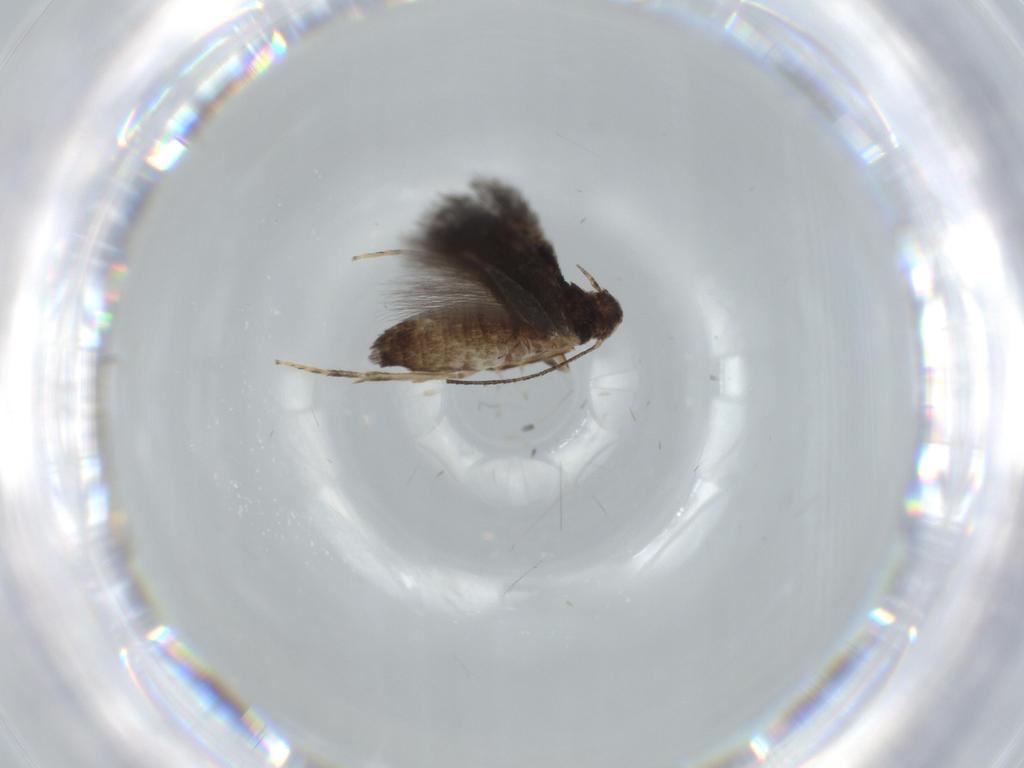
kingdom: Animalia
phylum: Arthropoda
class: Insecta
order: Lepidoptera
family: Tineidae
